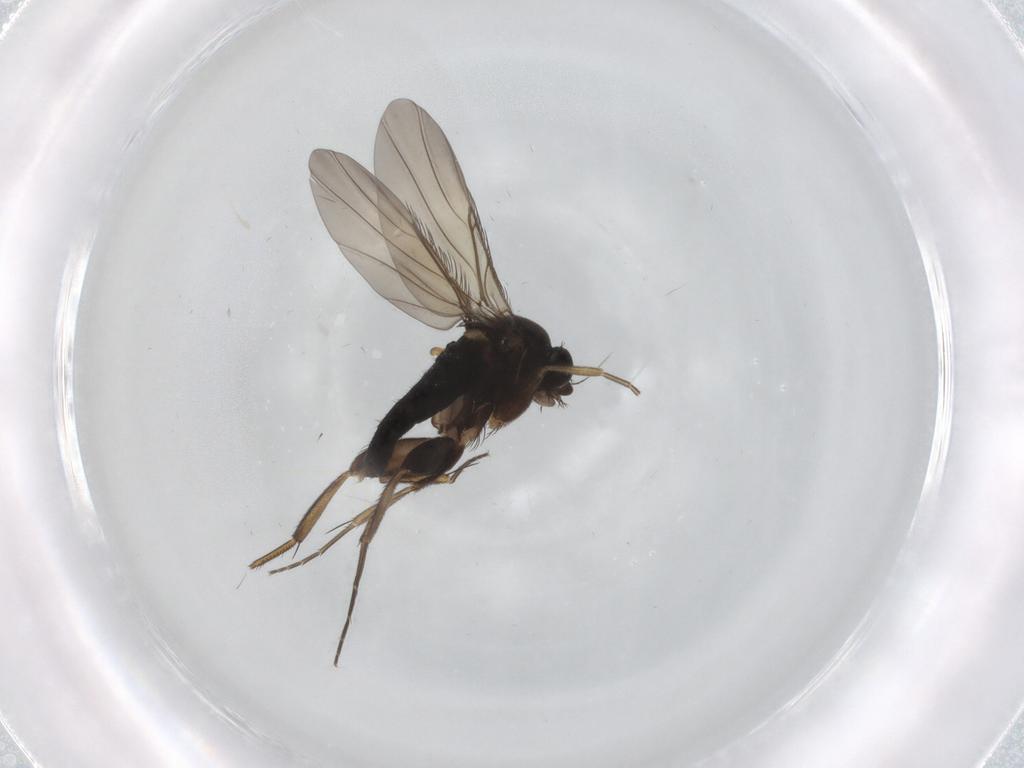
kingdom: Animalia
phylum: Arthropoda
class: Insecta
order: Diptera
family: Phoridae
